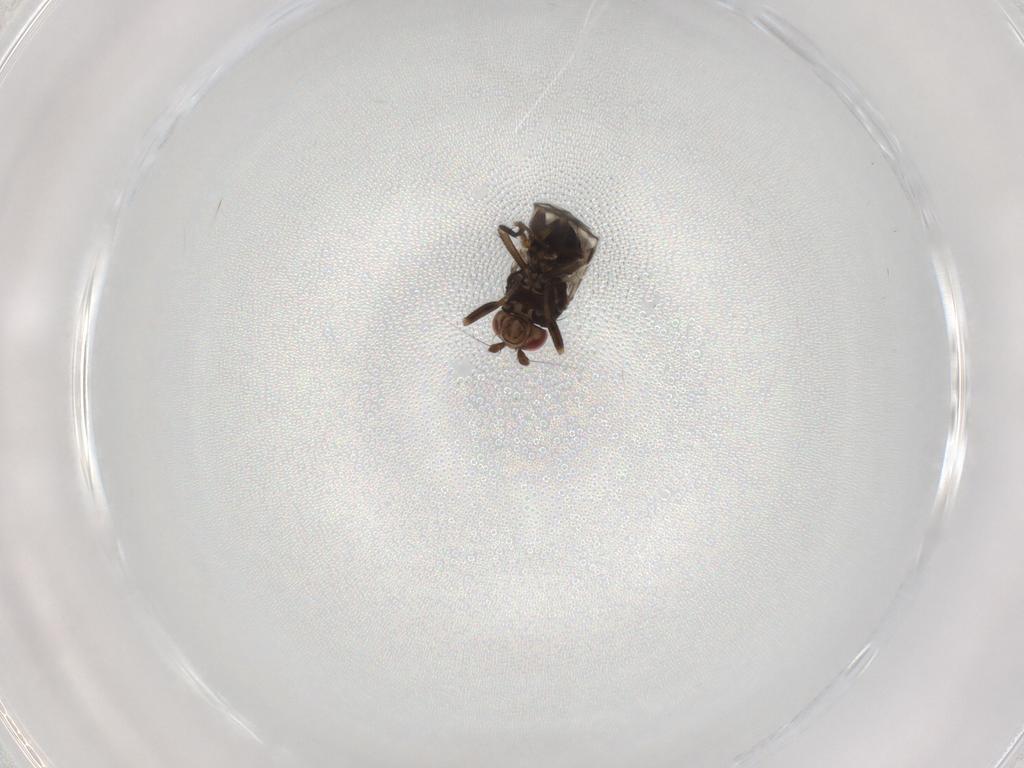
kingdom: Animalia
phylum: Arthropoda
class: Insecta
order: Diptera
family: Sphaeroceridae
